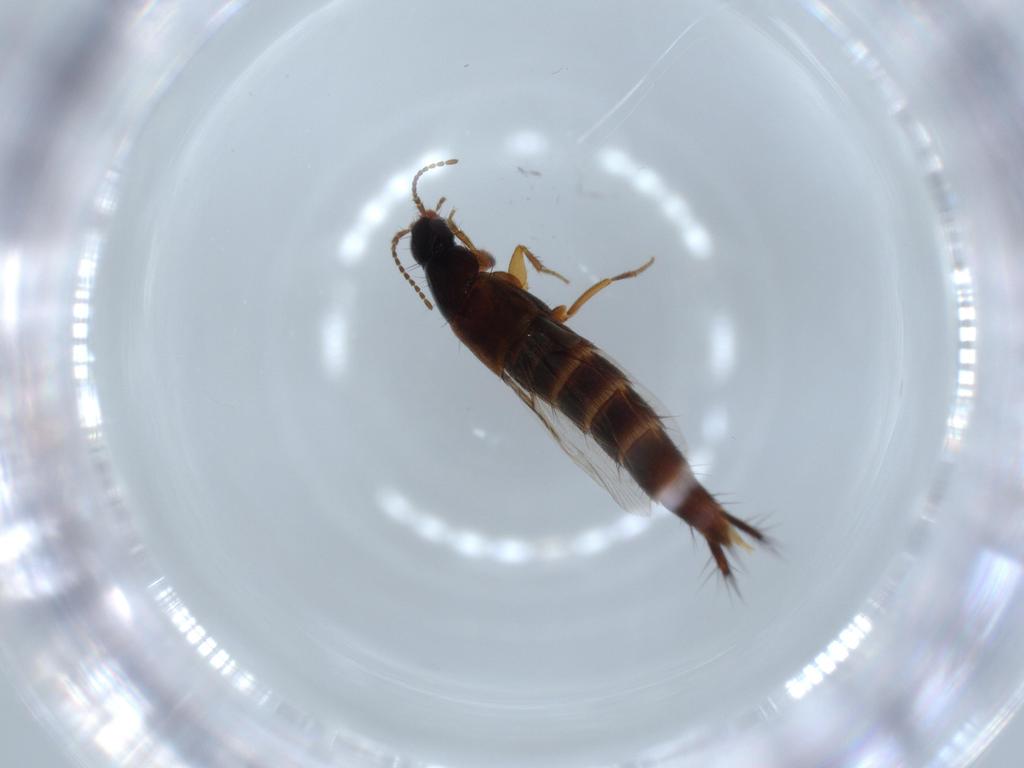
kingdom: Animalia
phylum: Arthropoda
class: Insecta
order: Coleoptera
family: Staphylinidae
